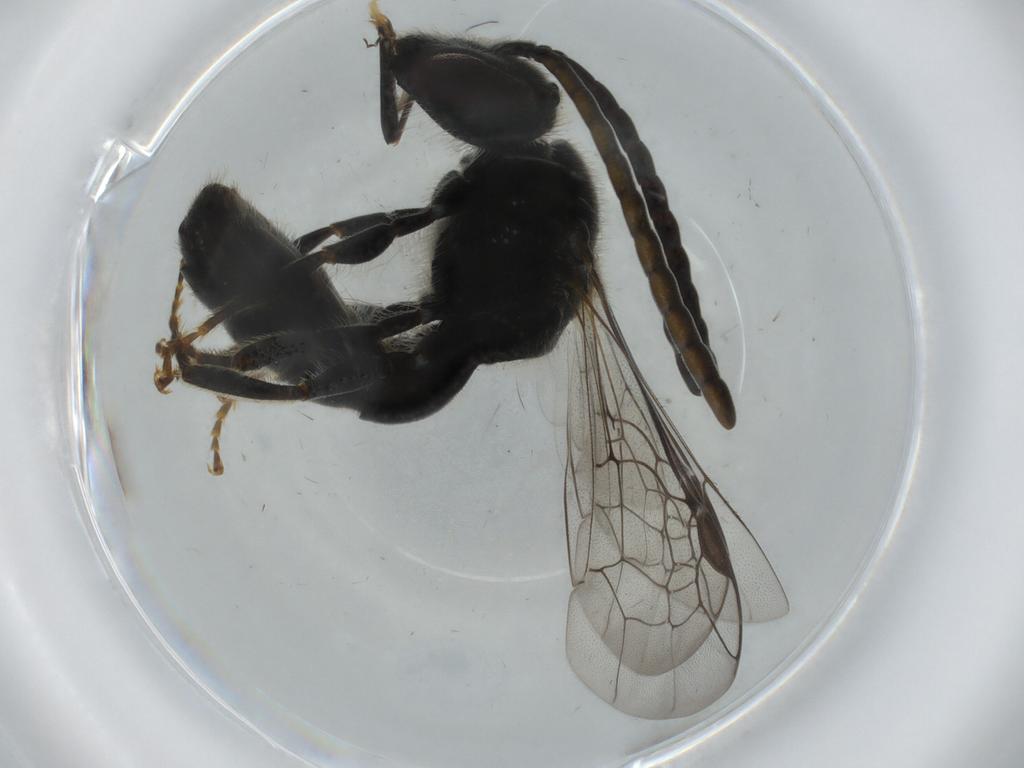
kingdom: Animalia
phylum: Arthropoda
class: Insecta
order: Hymenoptera
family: Halictidae
